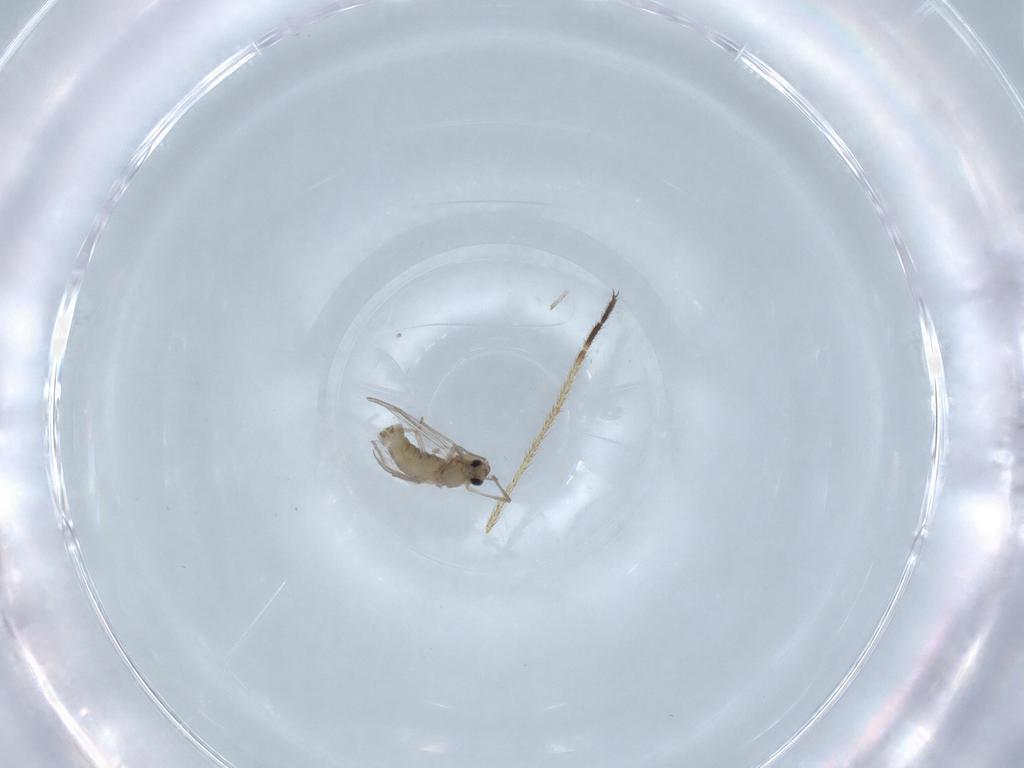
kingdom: Animalia
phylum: Arthropoda
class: Insecta
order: Diptera
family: Chironomidae
